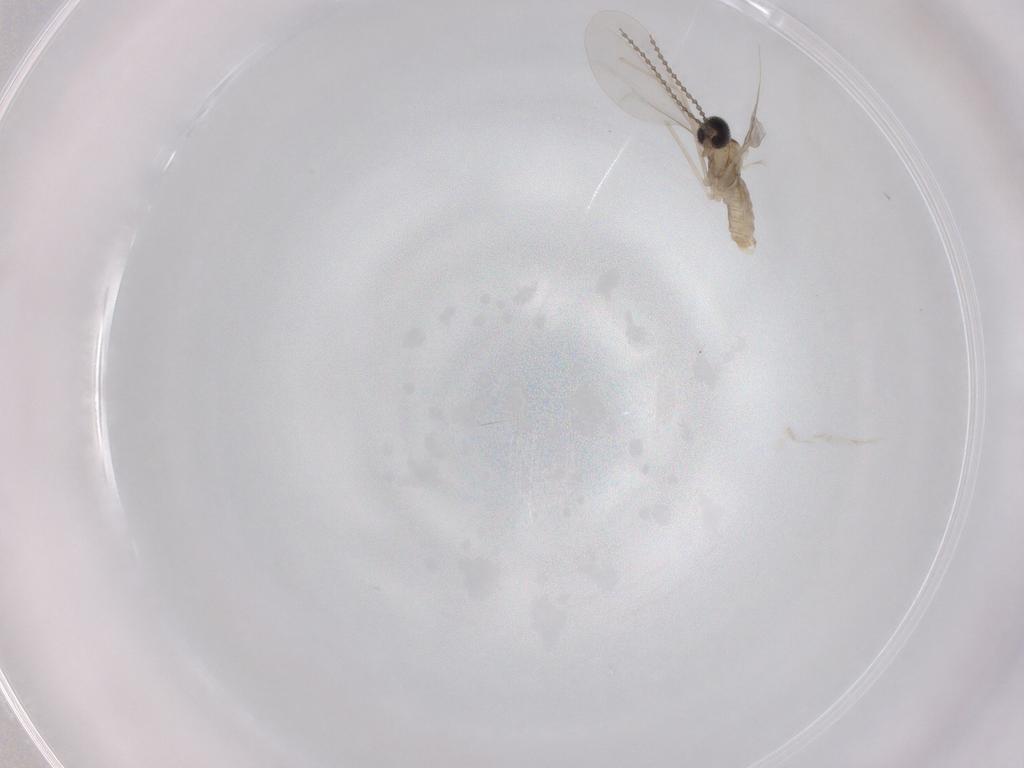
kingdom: Animalia
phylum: Arthropoda
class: Insecta
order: Diptera
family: Cecidomyiidae
